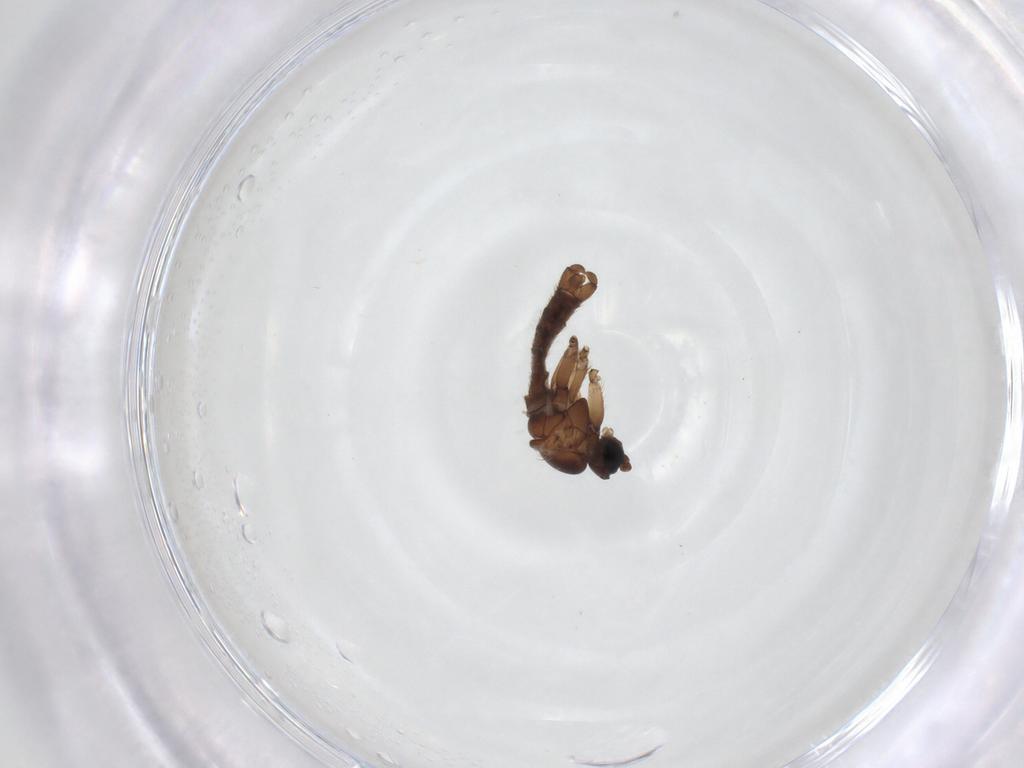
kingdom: Animalia
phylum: Arthropoda
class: Insecta
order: Diptera
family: Sciaridae
